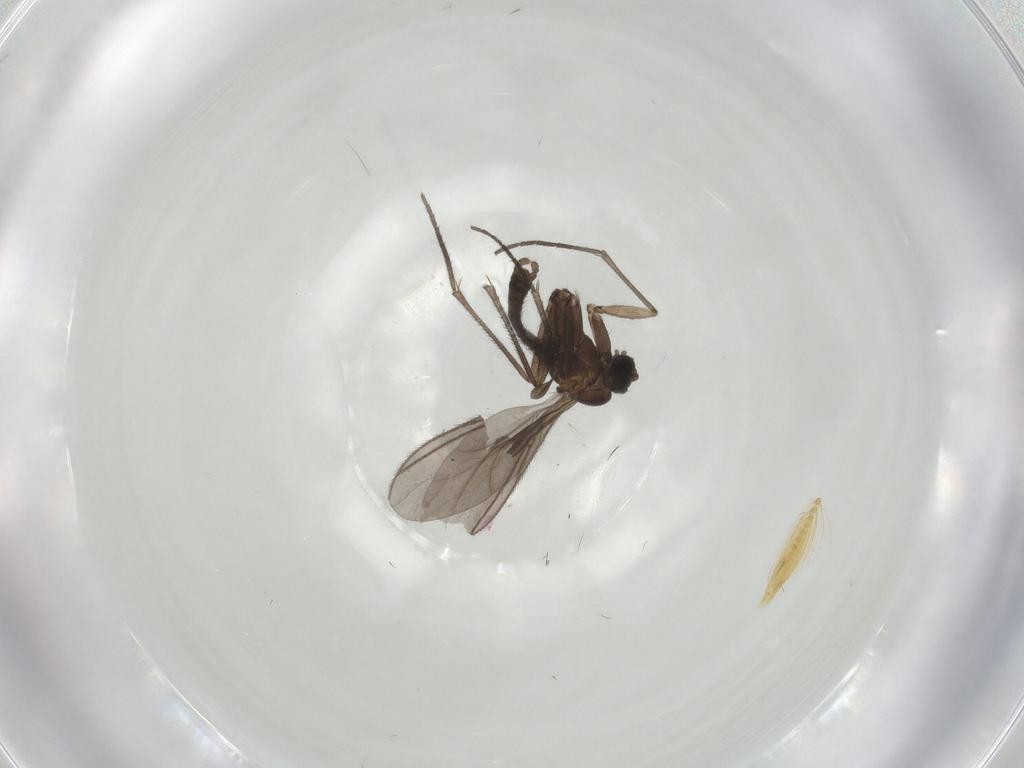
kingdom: Animalia
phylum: Arthropoda
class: Insecta
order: Diptera
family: Sciaridae
